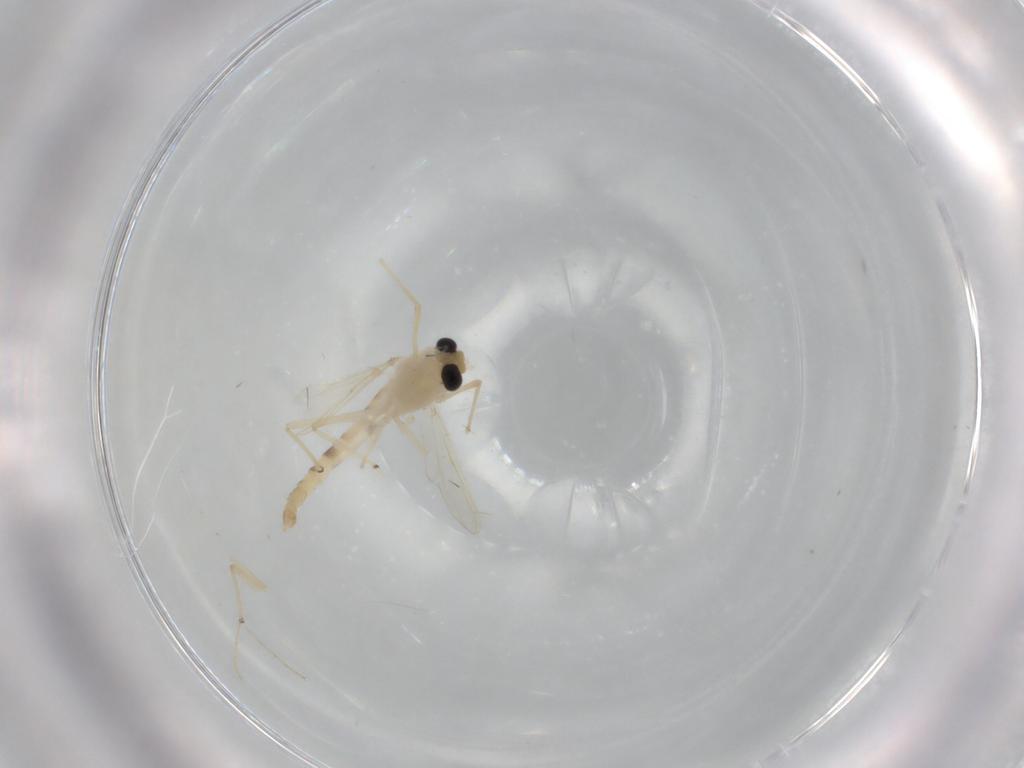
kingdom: Animalia
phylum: Arthropoda
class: Insecta
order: Diptera
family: Chironomidae
